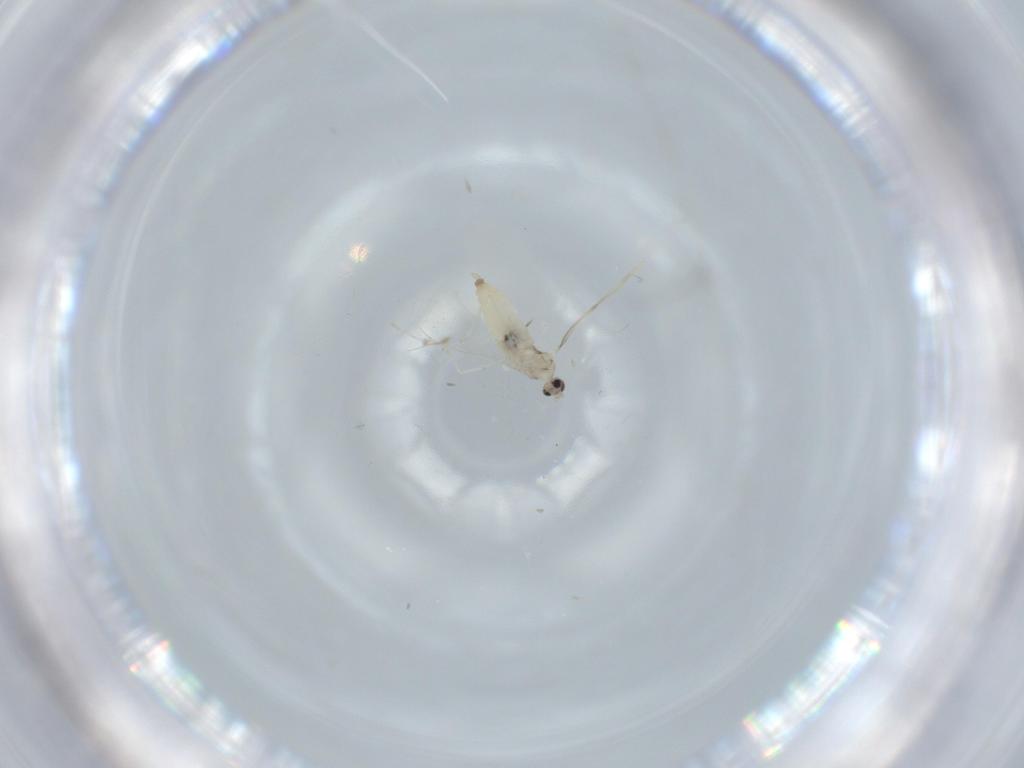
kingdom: Animalia
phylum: Arthropoda
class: Insecta
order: Diptera
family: Cecidomyiidae
